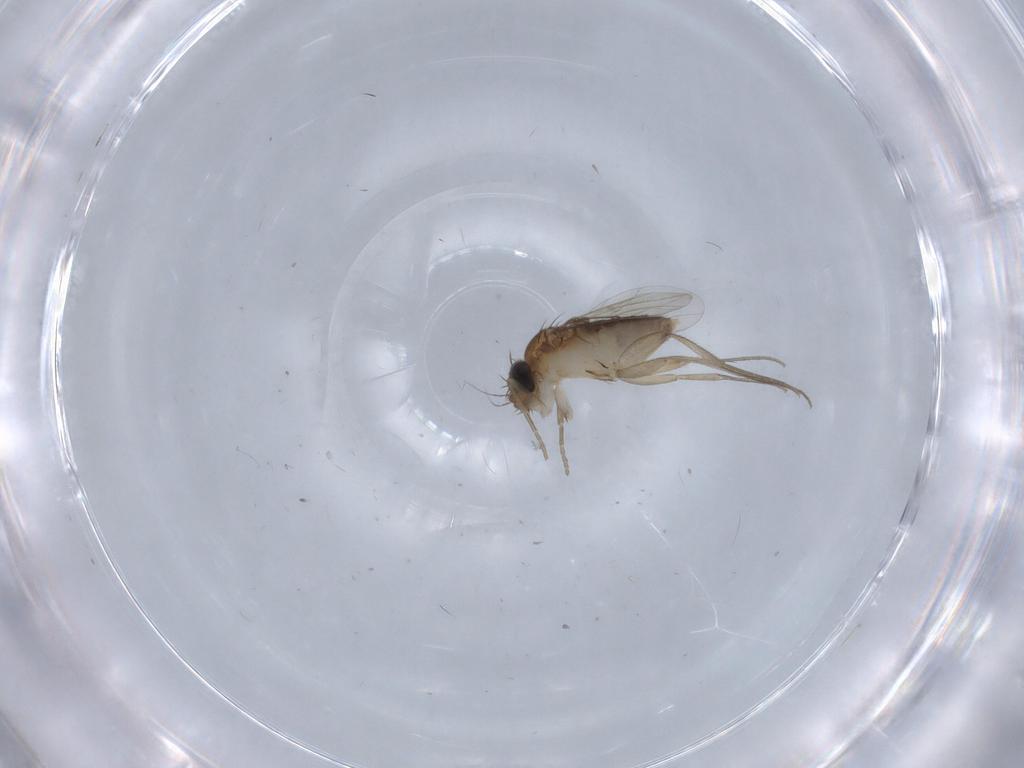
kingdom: Animalia
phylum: Arthropoda
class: Insecta
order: Diptera
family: Phoridae
